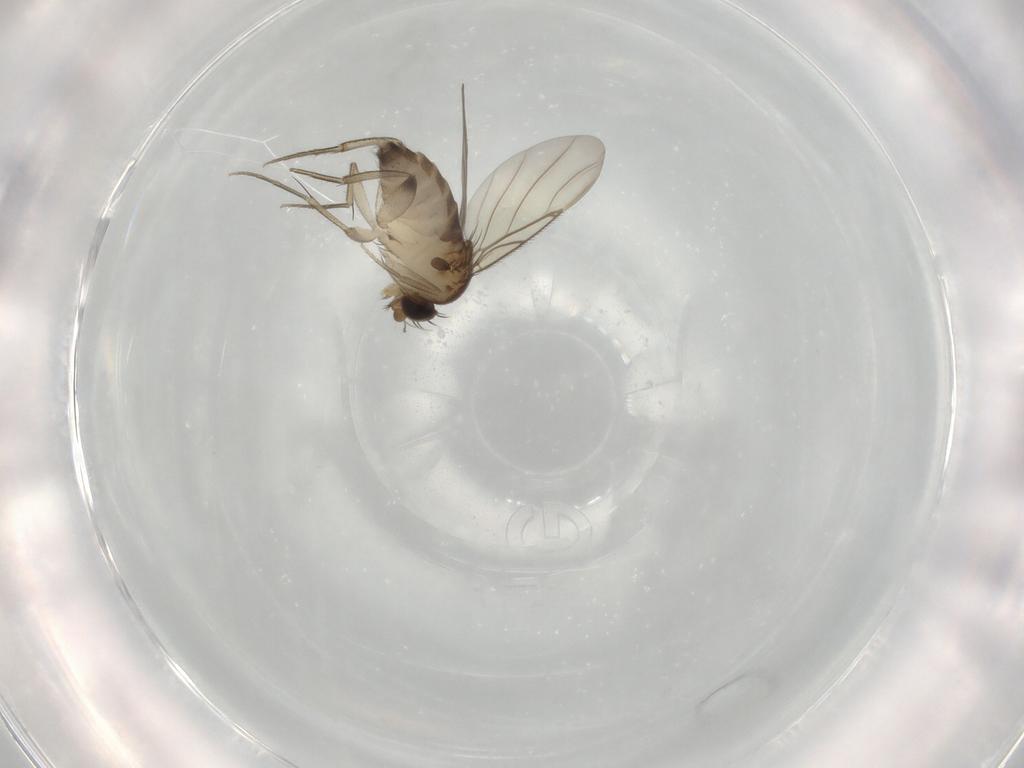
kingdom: Animalia
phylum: Arthropoda
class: Insecta
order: Diptera
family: Phoridae
